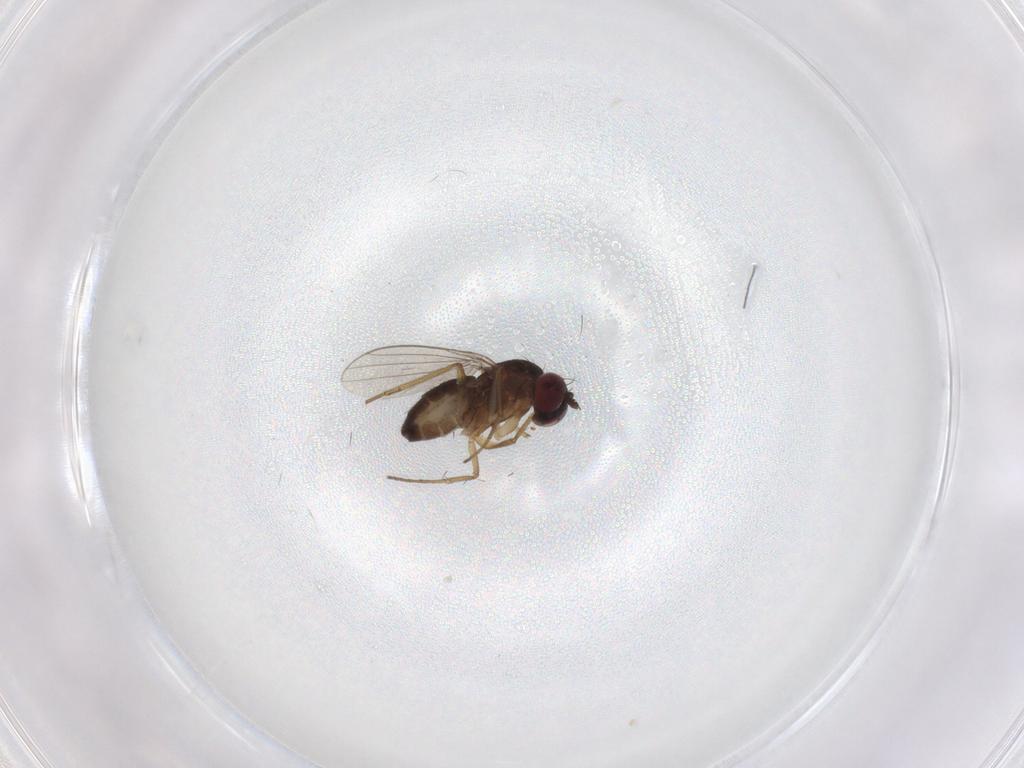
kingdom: Animalia
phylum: Arthropoda
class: Insecta
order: Diptera
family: Dolichopodidae
